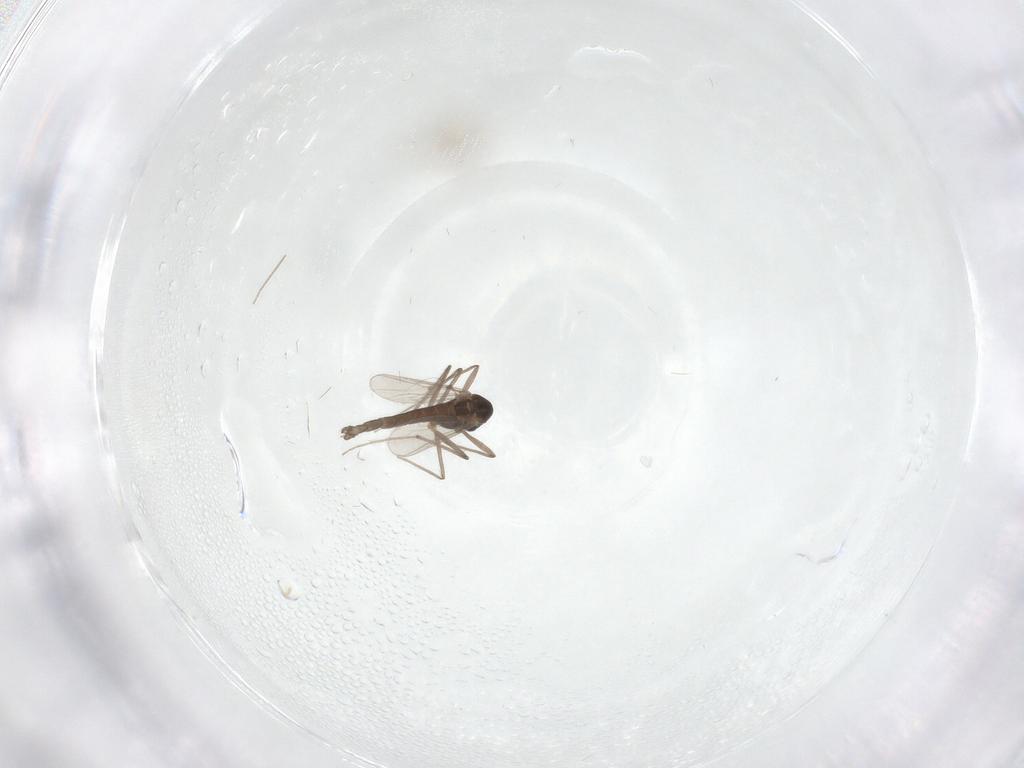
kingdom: Animalia
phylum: Arthropoda
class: Insecta
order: Diptera
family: Chironomidae
